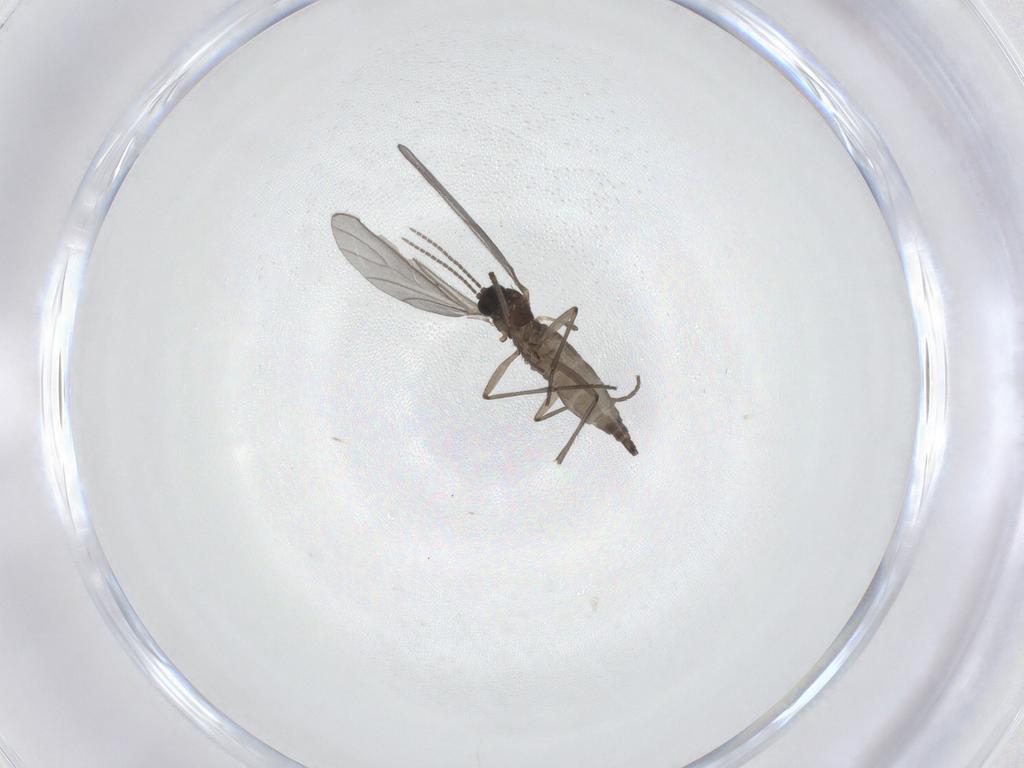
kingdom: Animalia
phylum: Arthropoda
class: Insecta
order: Diptera
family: Sciaridae
